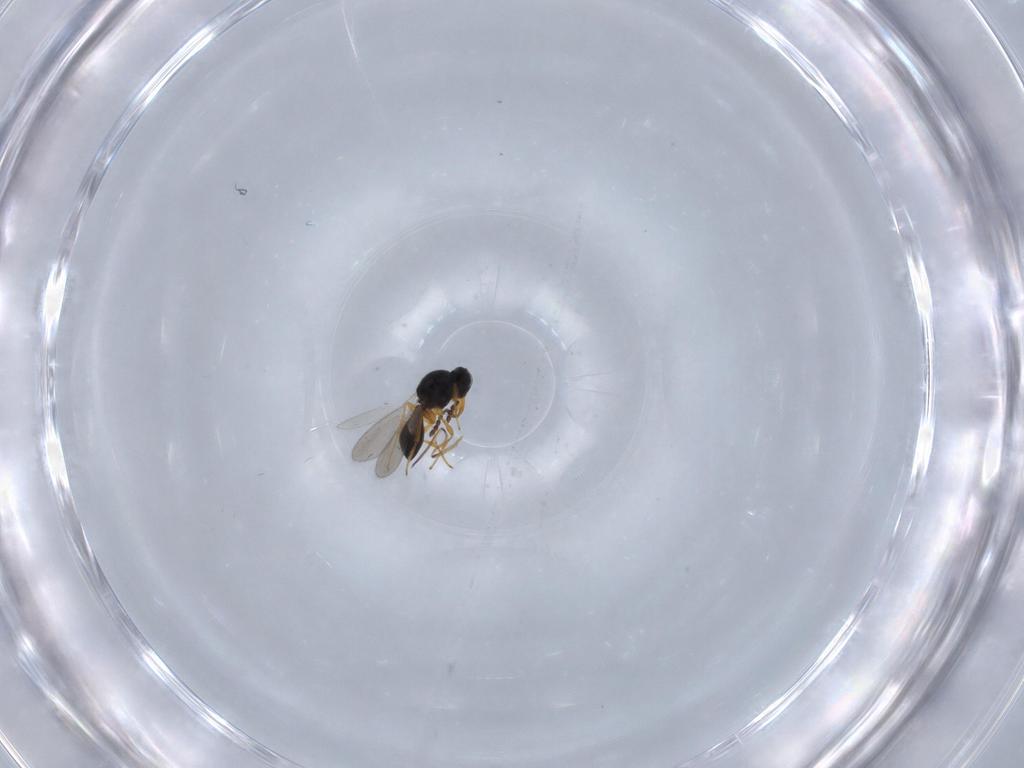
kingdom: Animalia
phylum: Arthropoda
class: Insecta
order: Hymenoptera
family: Platygastridae
